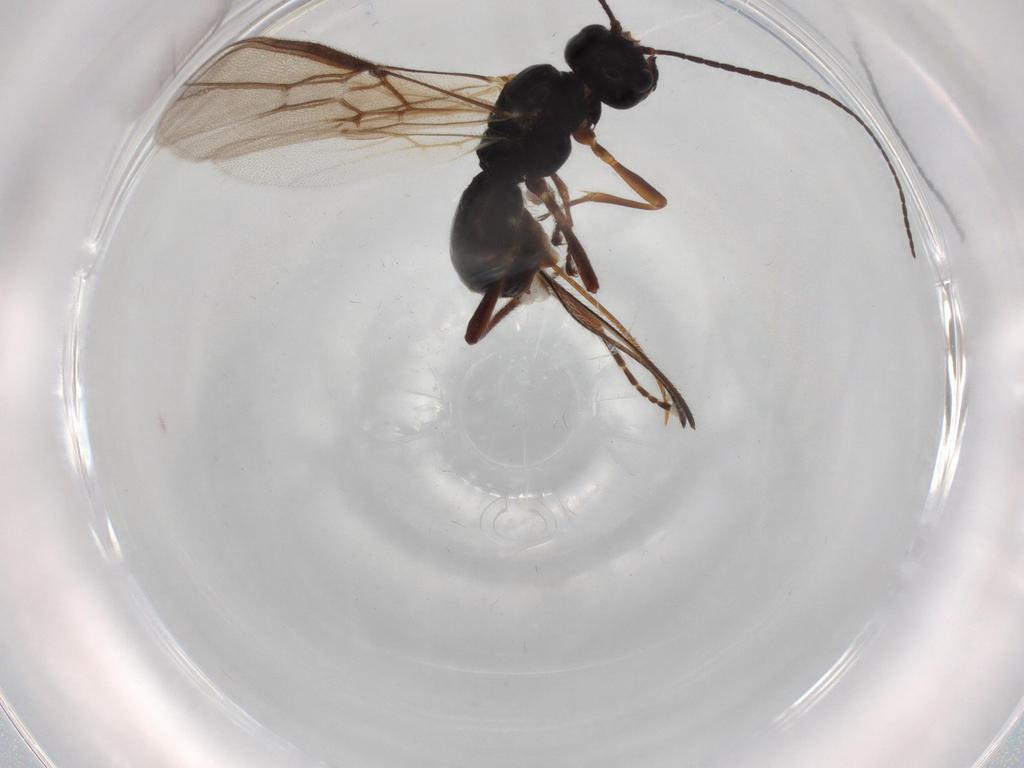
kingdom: Animalia
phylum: Arthropoda
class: Insecta
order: Hymenoptera
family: Braconidae
